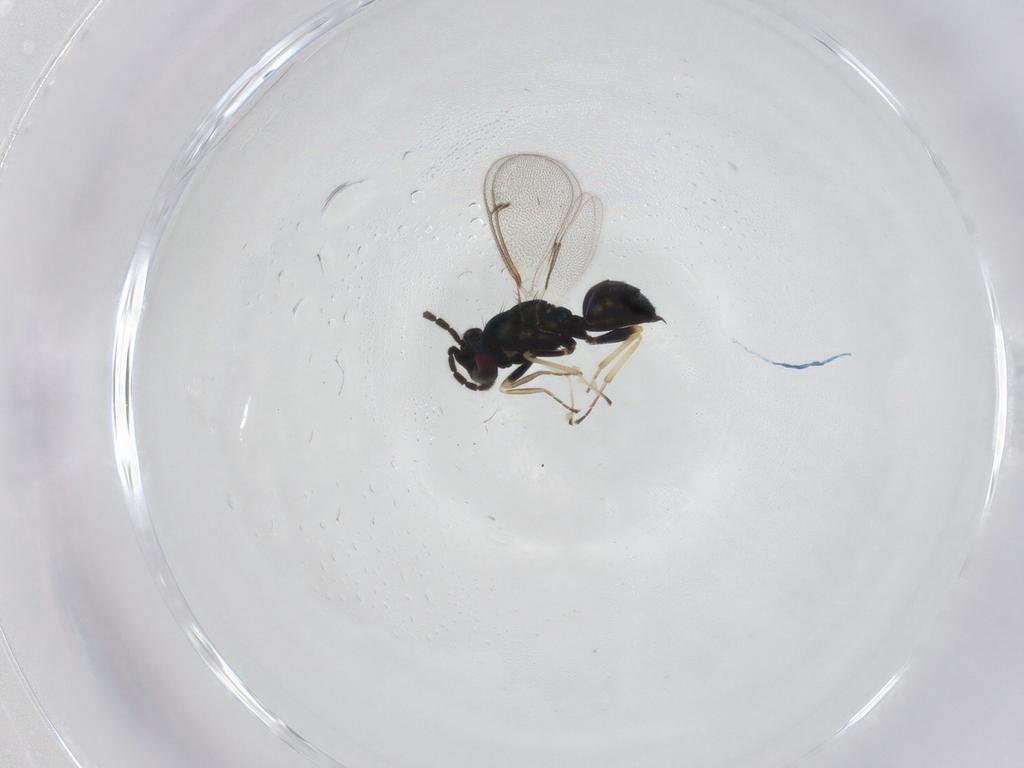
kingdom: Animalia
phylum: Arthropoda
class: Insecta
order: Hymenoptera
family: Eulophidae
